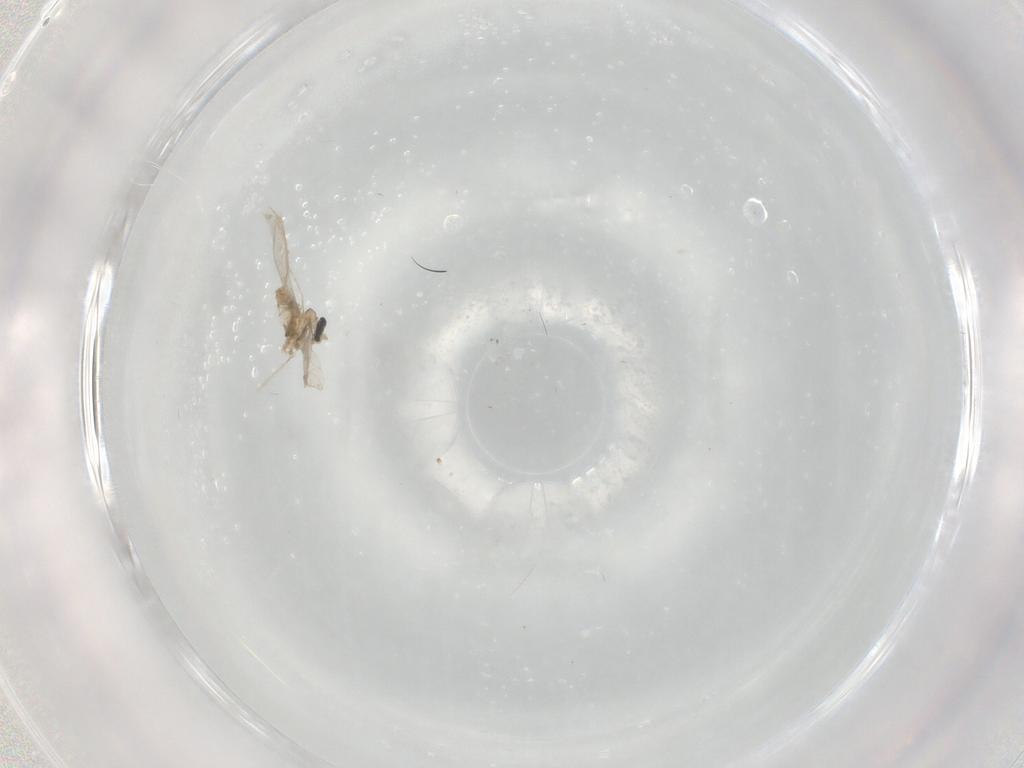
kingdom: Animalia
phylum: Arthropoda
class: Insecta
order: Diptera
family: Cecidomyiidae
